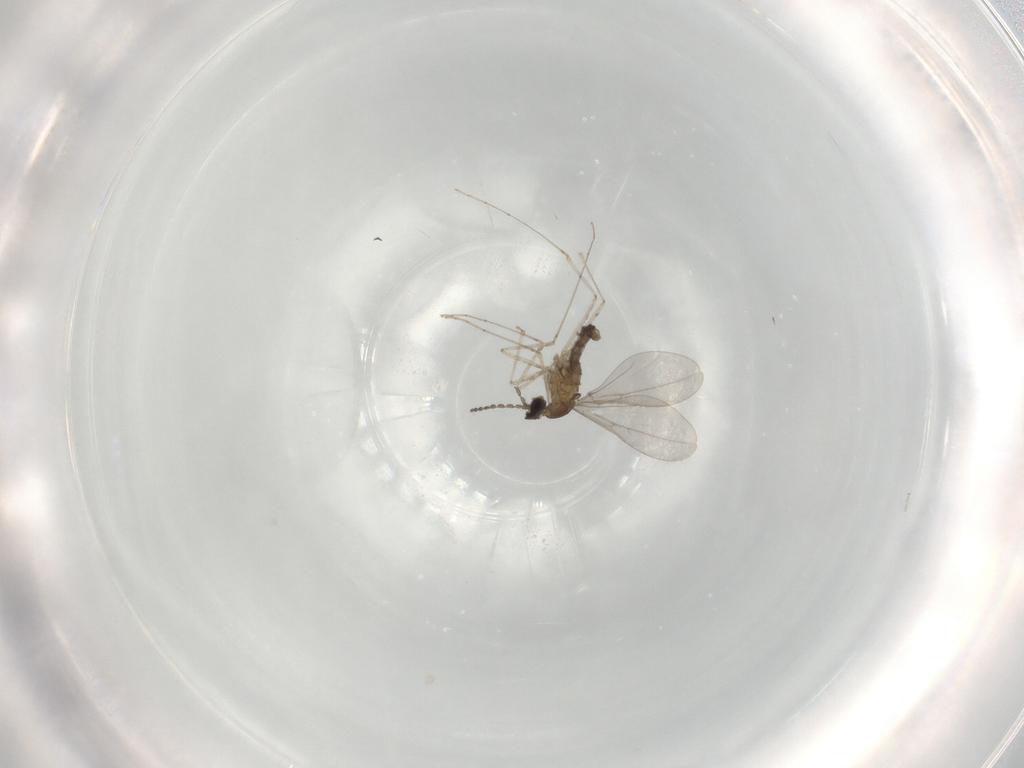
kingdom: Animalia
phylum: Arthropoda
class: Insecta
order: Diptera
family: Cecidomyiidae
